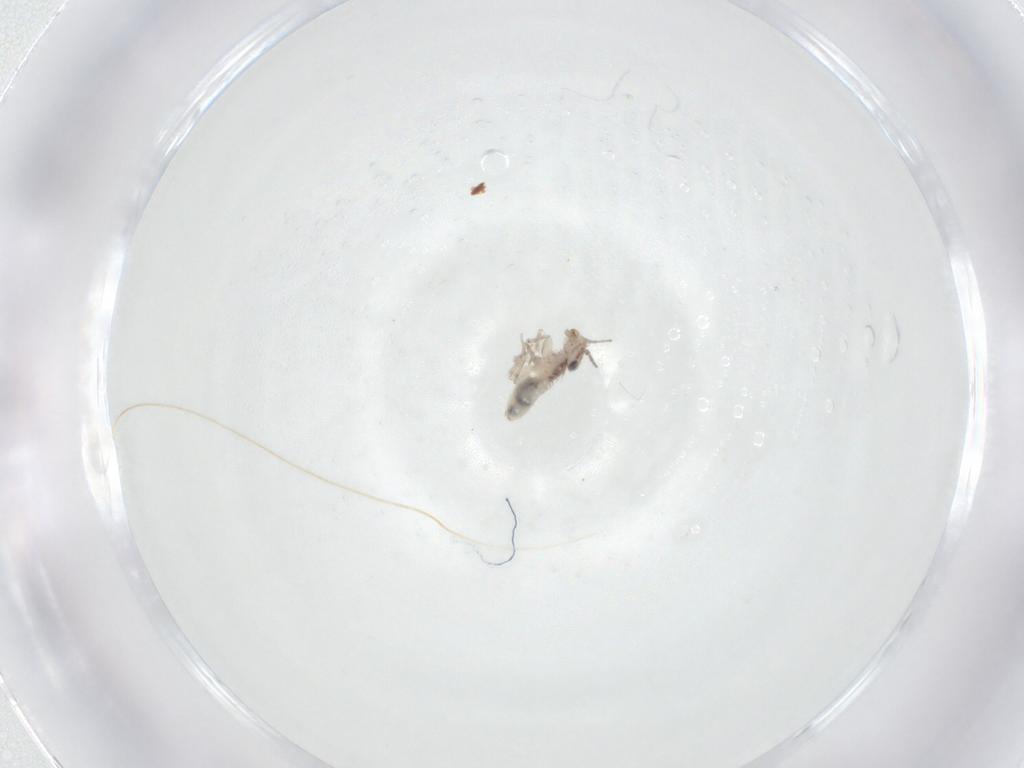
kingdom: Animalia
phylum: Arthropoda
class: Insecta
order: Psocodea
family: Lepidopsocidae
